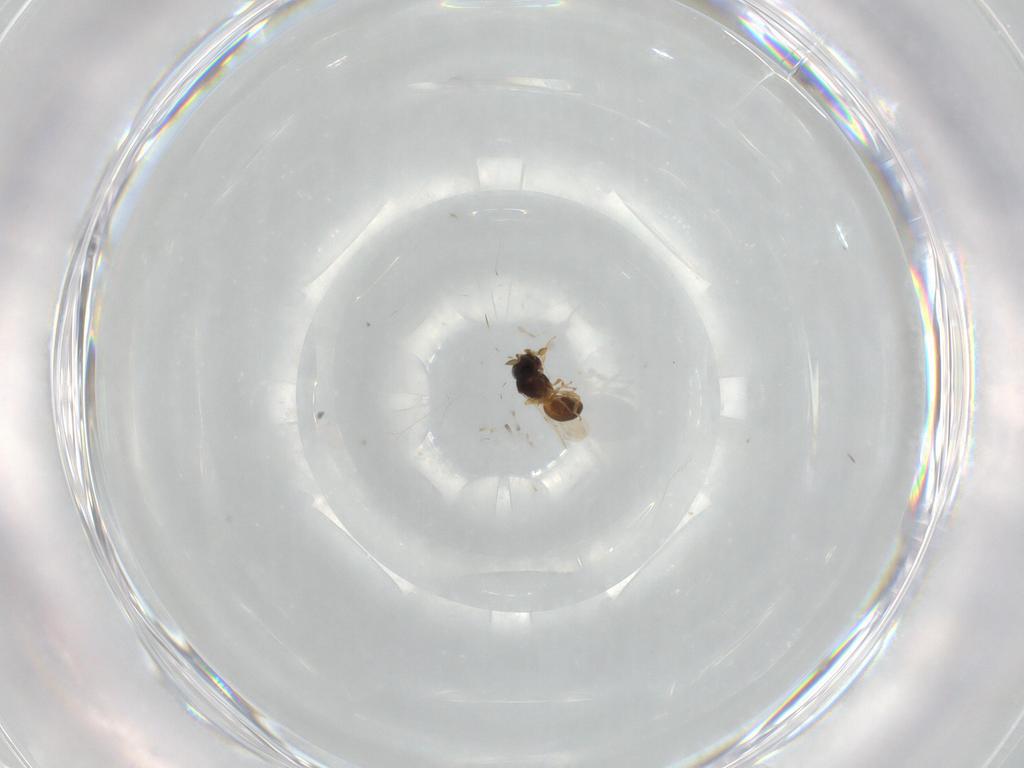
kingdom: Animalia
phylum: Arthropoda
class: Insecta
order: Hymenoptera
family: Scelionidae
